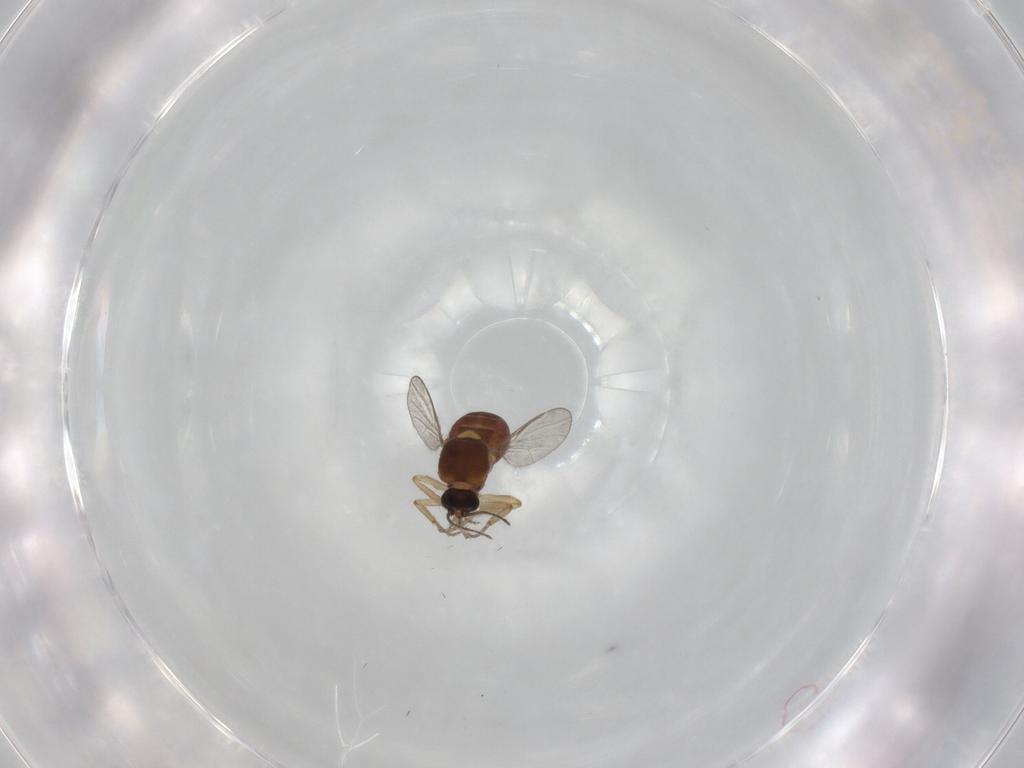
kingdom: Animalia
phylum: Arthropoda
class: Insecta
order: Diptera
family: Ceratopogonidae
